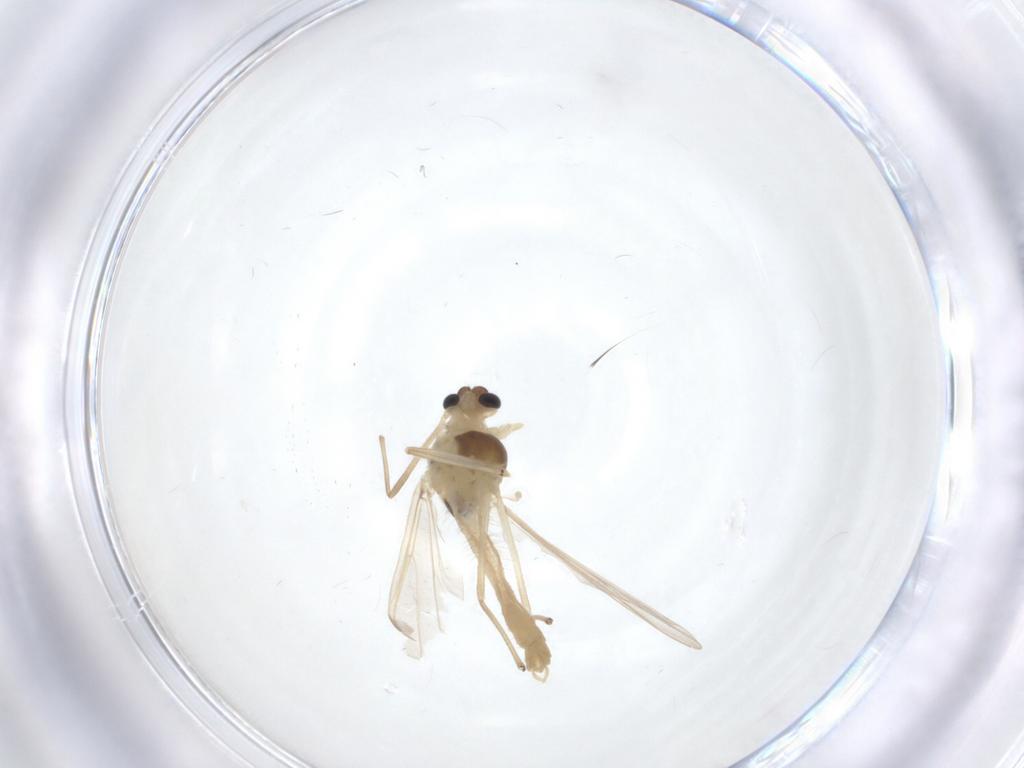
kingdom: Animalia
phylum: Arthropoda
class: Insecta
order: Diptera
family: Chironomidae
